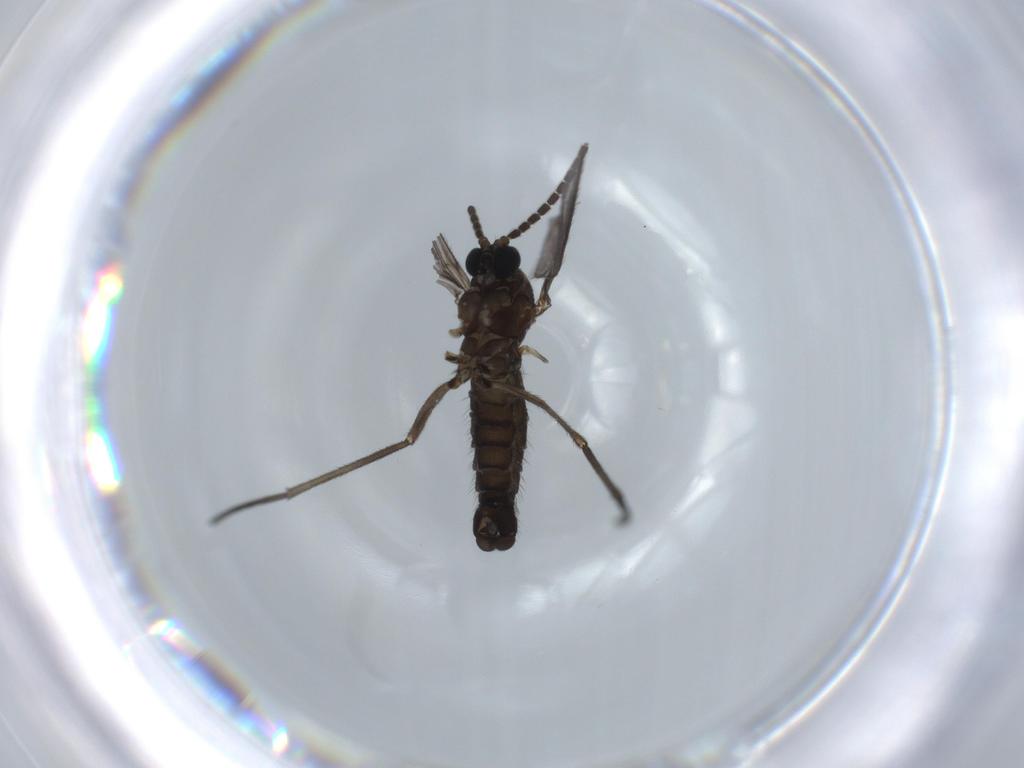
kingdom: Animalia
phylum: Arthropoda
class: Insecta
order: Diptera
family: Sciaridae
